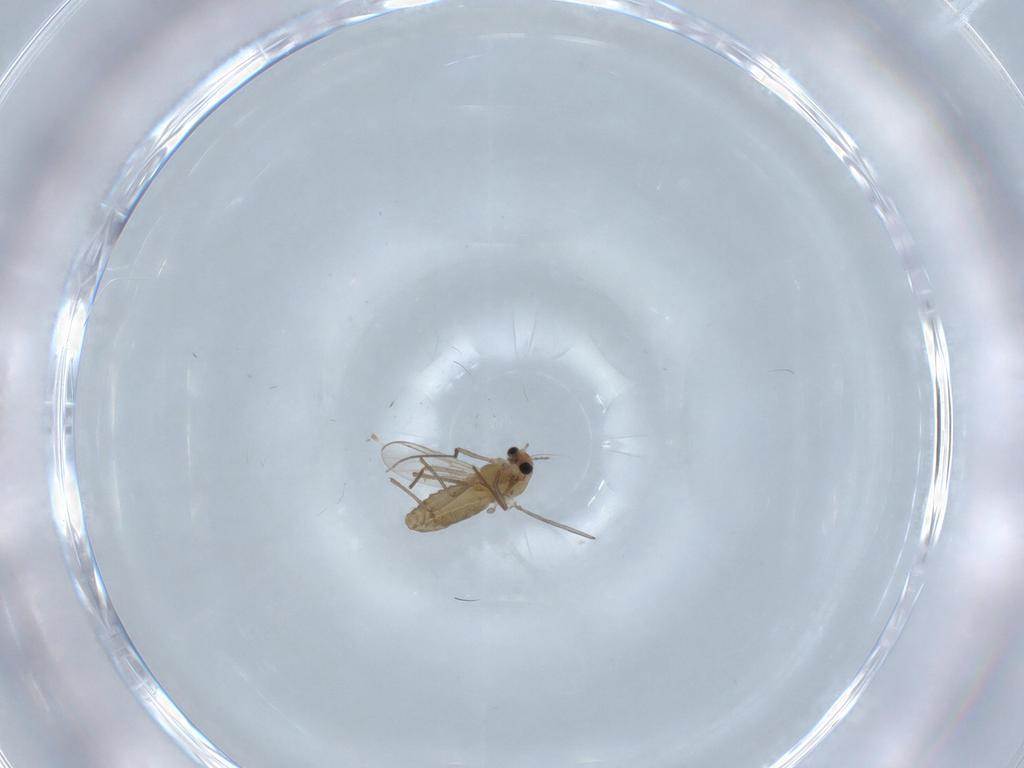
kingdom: Animalia
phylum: Arthropoda
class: Insecta
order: Diptera
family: Chironomidae
